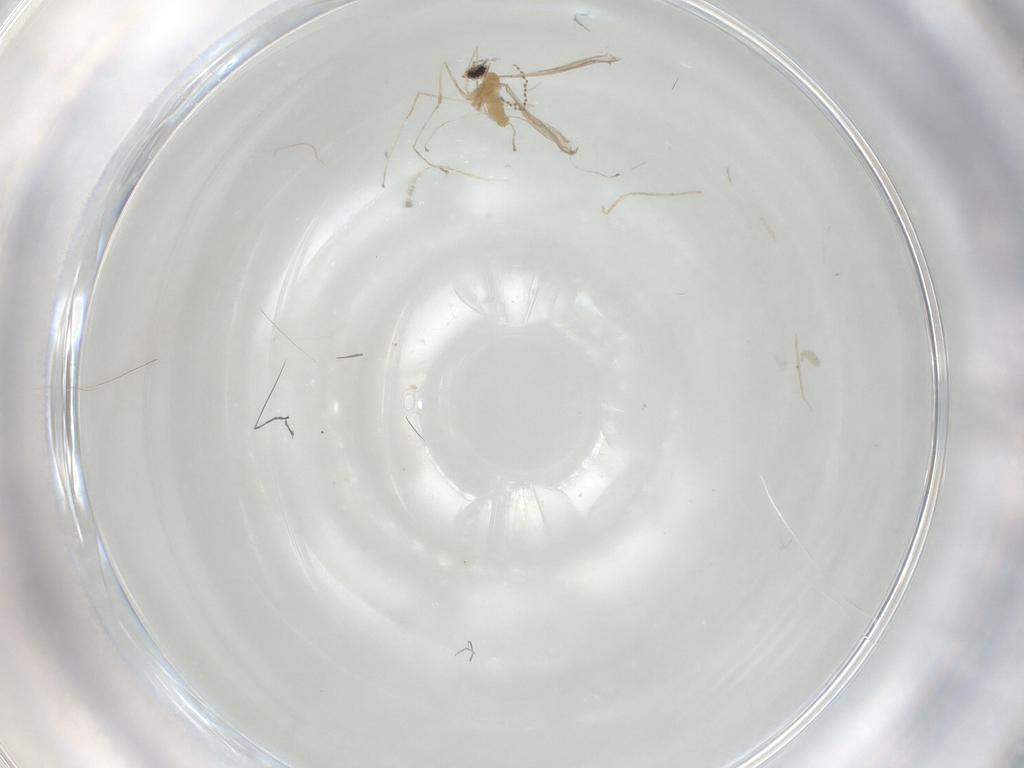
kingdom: Animalia
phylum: Arthropoda
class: Insecta
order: Diptera
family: Cecidomyiidae
